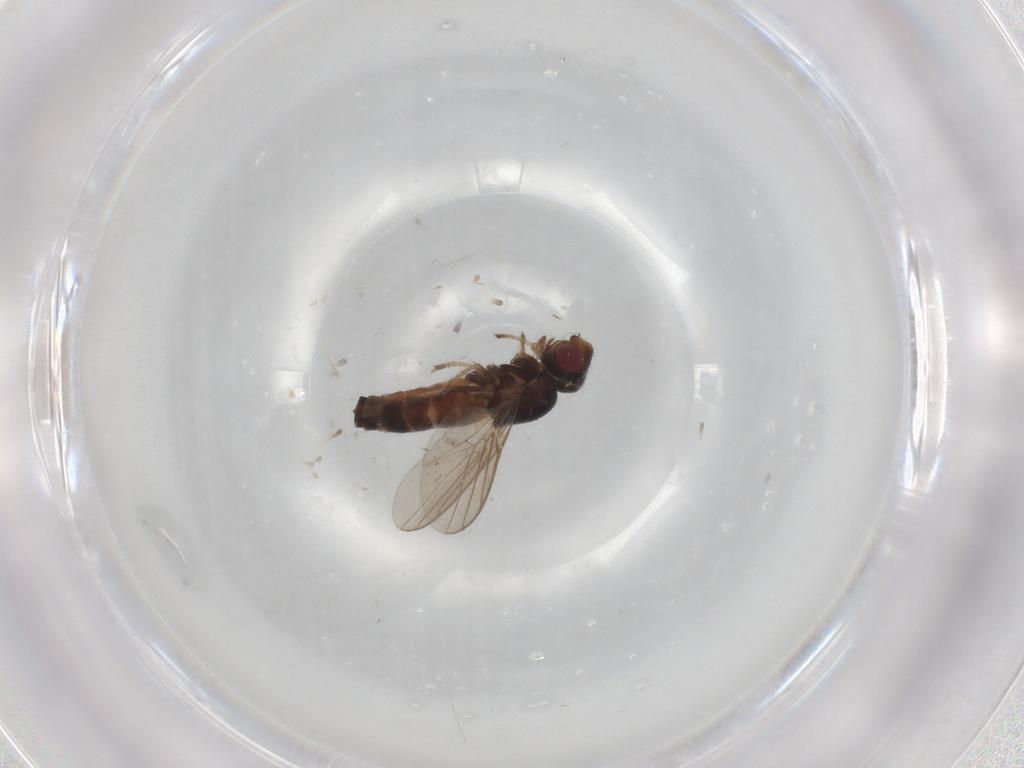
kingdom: Animalia
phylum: Arthropoda
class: Insecta
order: Diptera
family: Chloropidae
